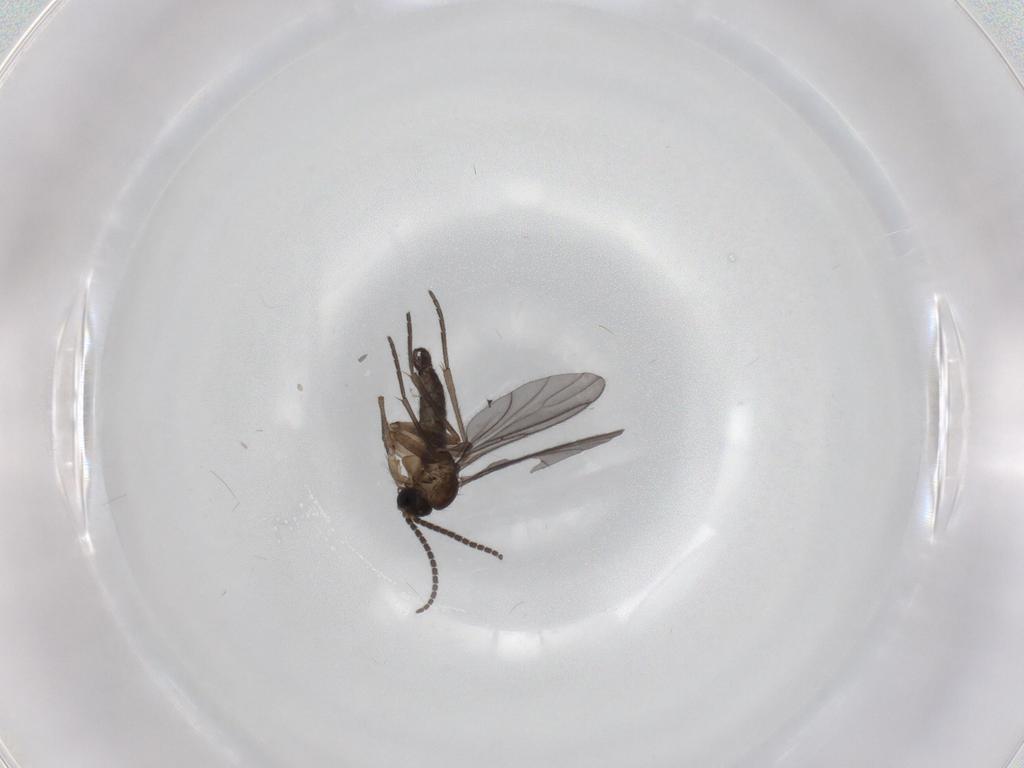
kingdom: Animalia
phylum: Arthropoda
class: Insecta
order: Diptera
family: Sciaridae
